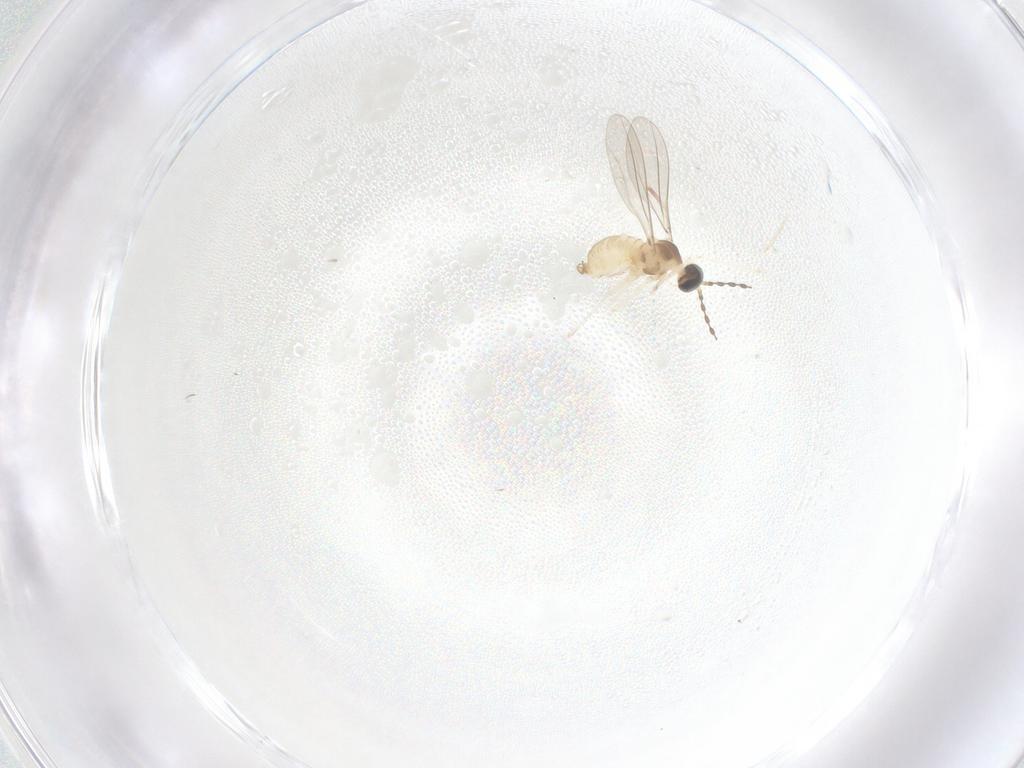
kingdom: Animalia
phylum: Arthropoda
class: Insecta
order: Diptera
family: Cecidomyiidae
